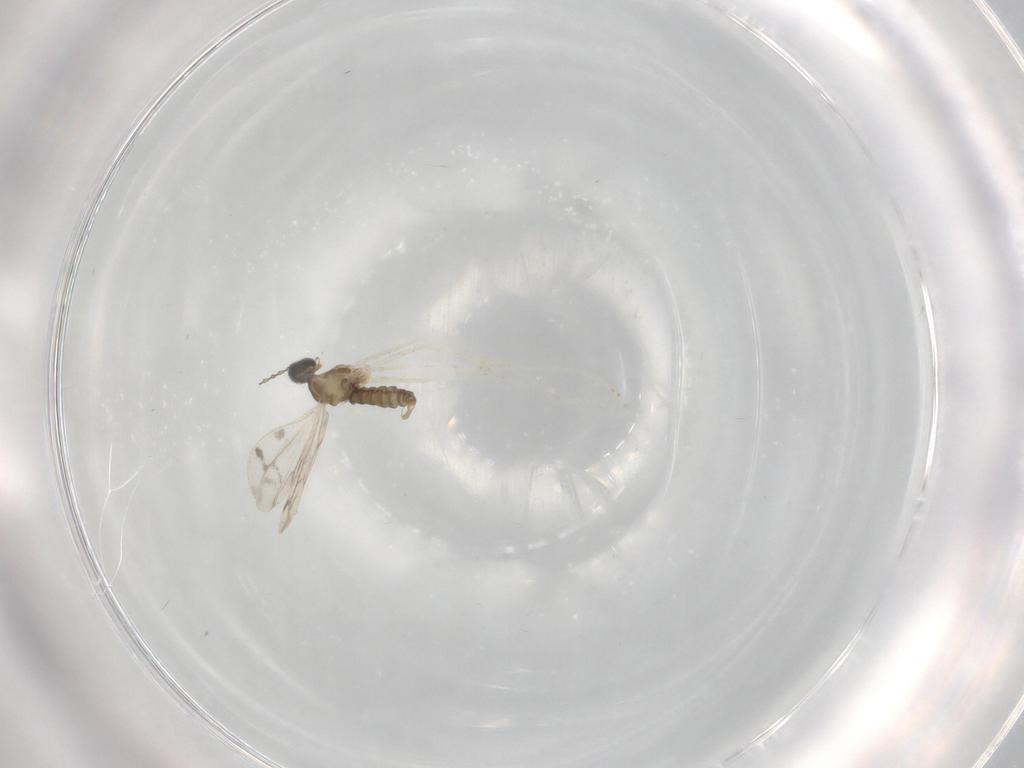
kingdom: Animalia
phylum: Arthropoda
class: Insecta
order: Diptera
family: Cecidomyiidae
